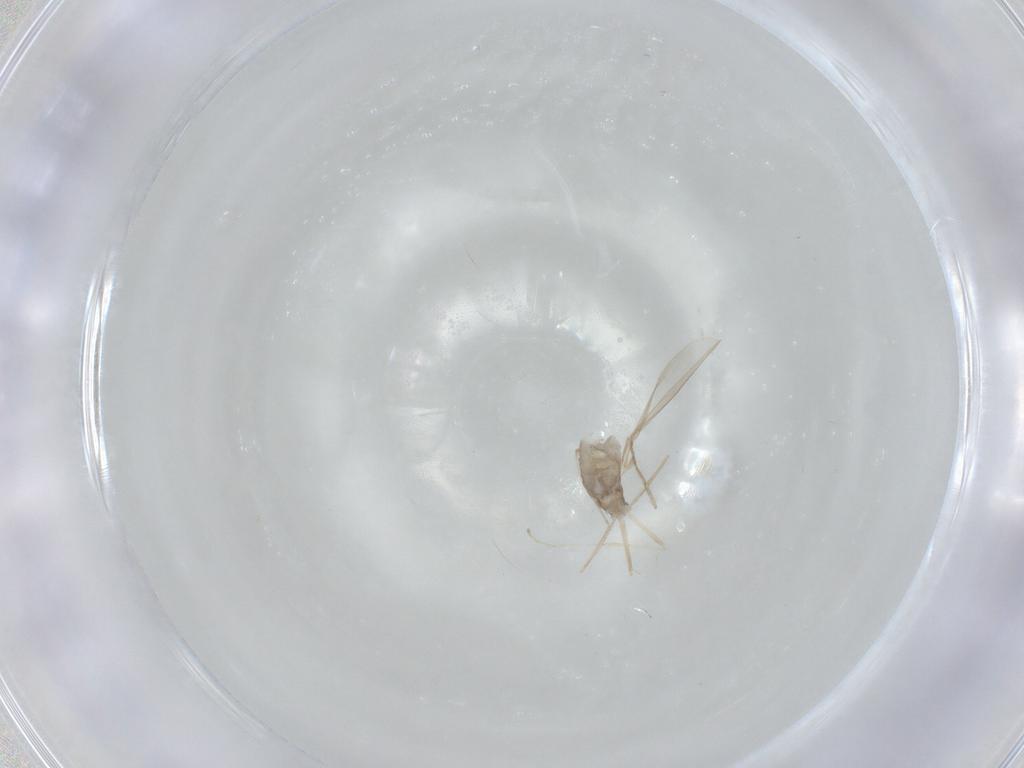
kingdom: Animalia
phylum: Arthropoda
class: Insecta
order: Diptera
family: Cecidomyiidae
